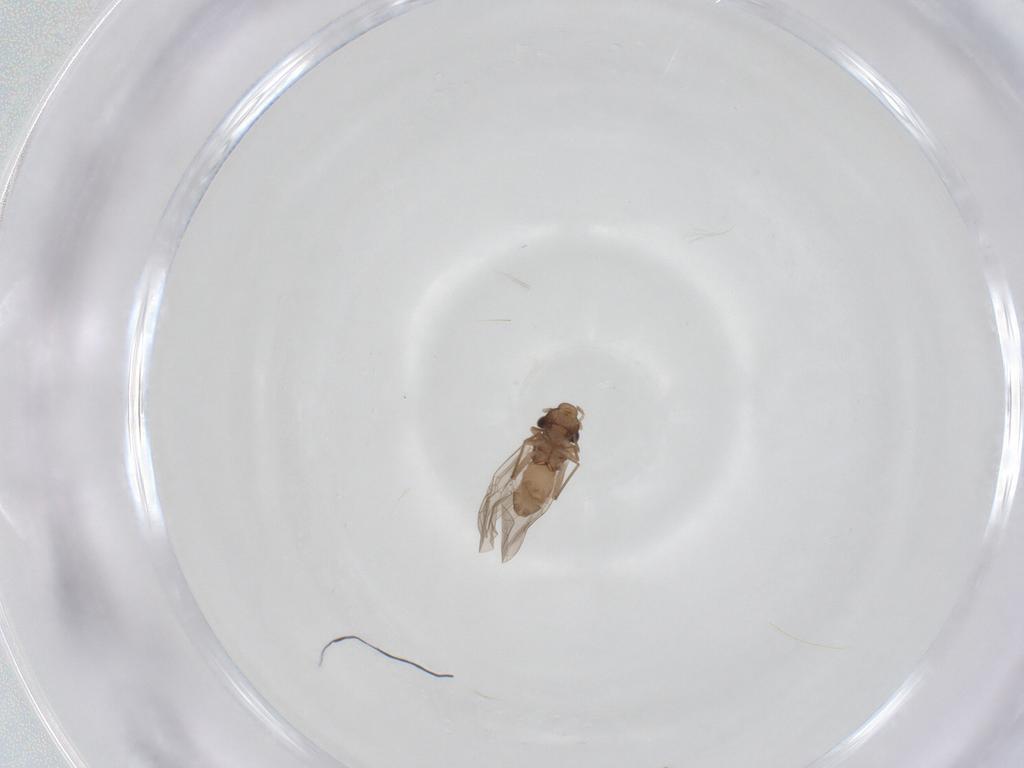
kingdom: Animalia
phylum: Arthropoda
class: Insecta
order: Psocodea
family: Lepidopsocidae
